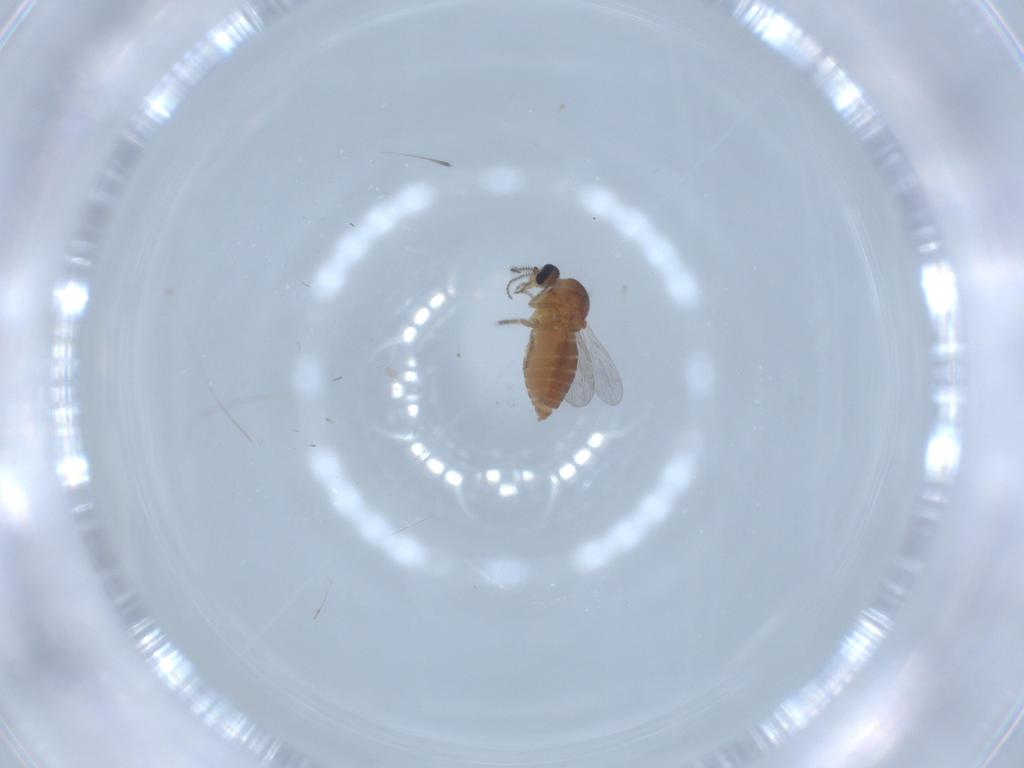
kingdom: Animalia
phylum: Arthropoda
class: Insecta
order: Diptera
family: Ceratopogonidae
